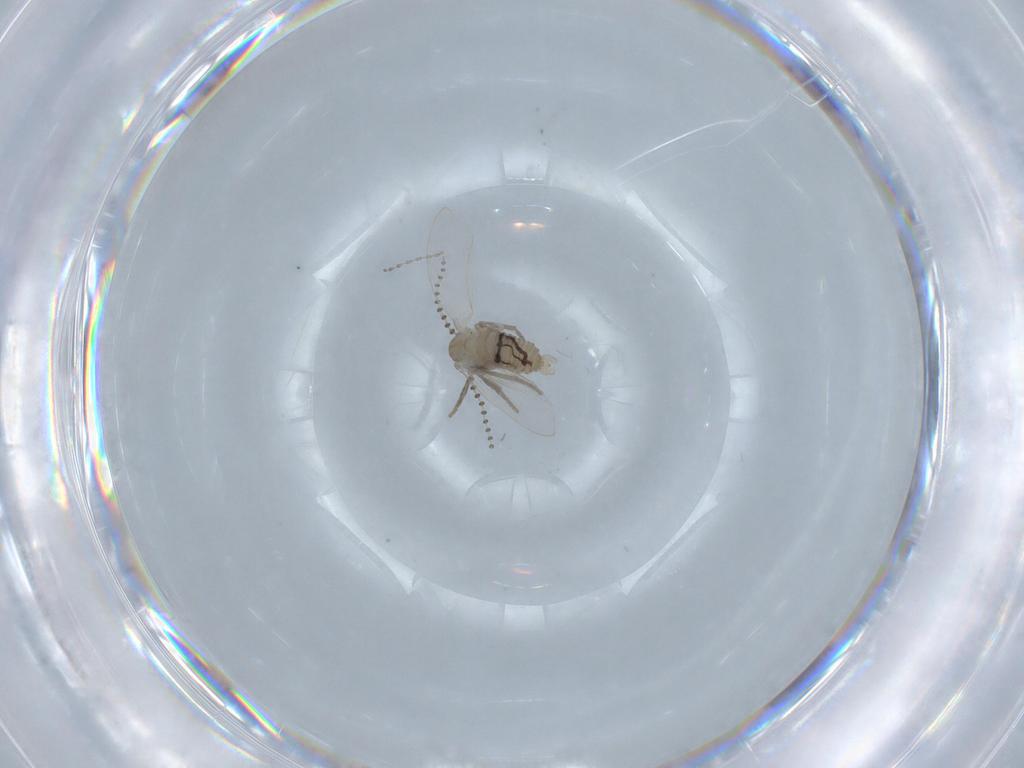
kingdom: Animalia
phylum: Arthropoda
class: Insecta
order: Diptera
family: Psychodidae
